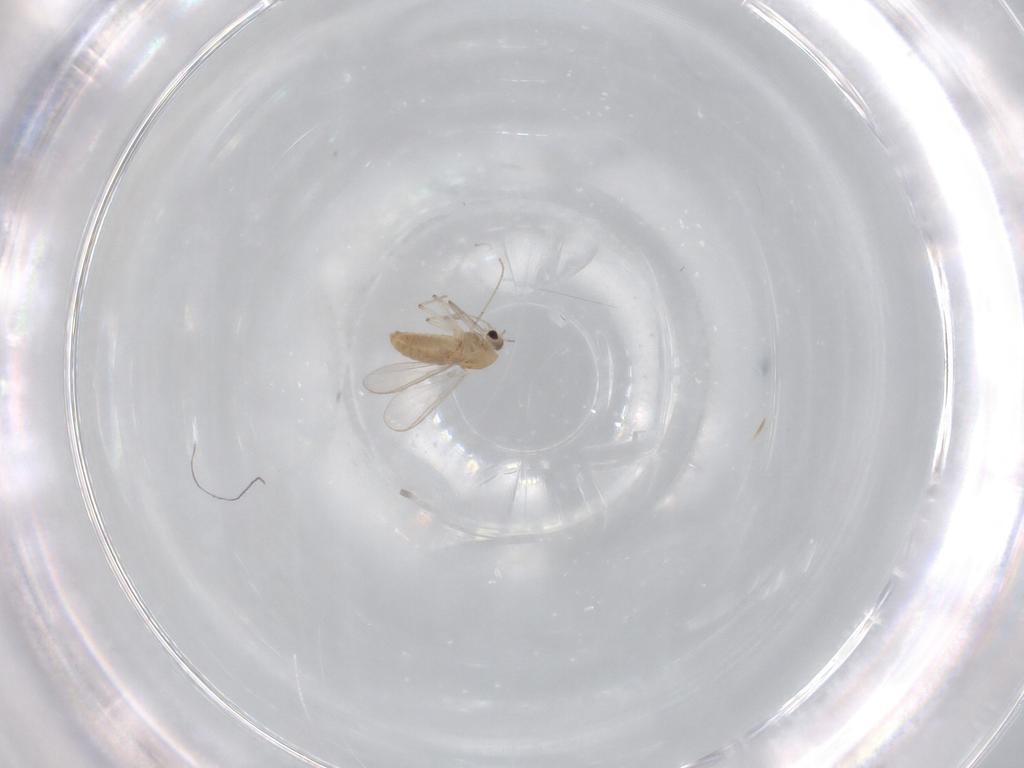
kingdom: Animalia
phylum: Arthropoda
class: Insecta
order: Diptera
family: Chironomidae
